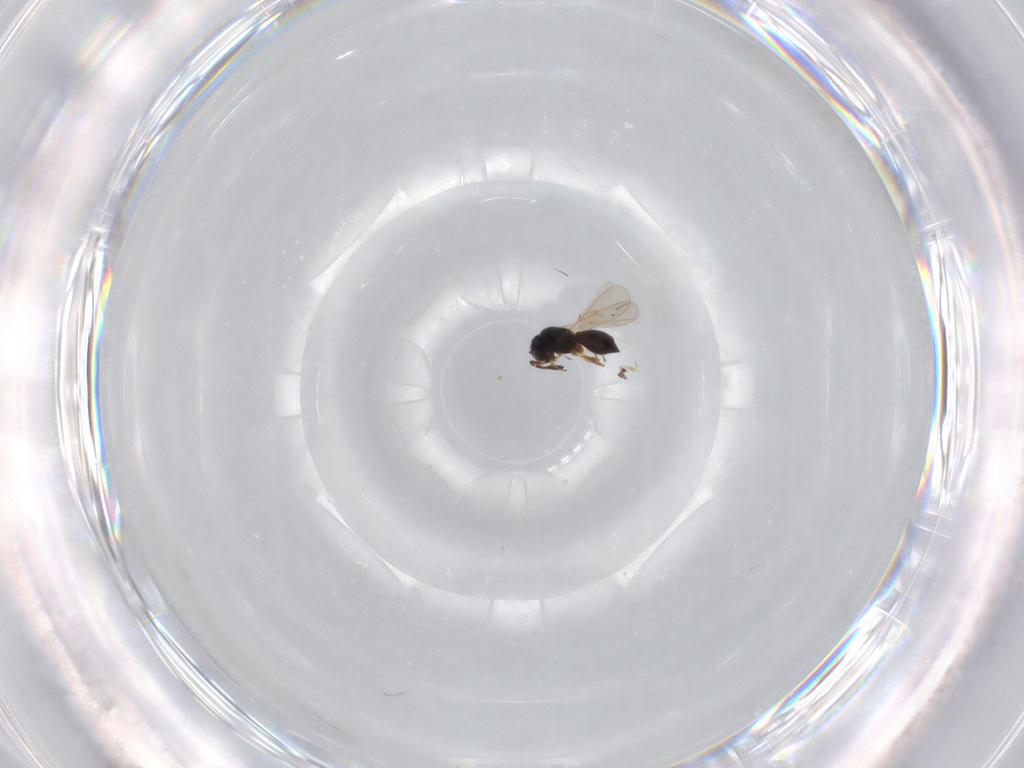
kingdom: Animalia
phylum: Arthropoda
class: Insecta
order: Hymenoptera
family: Scelionidae
